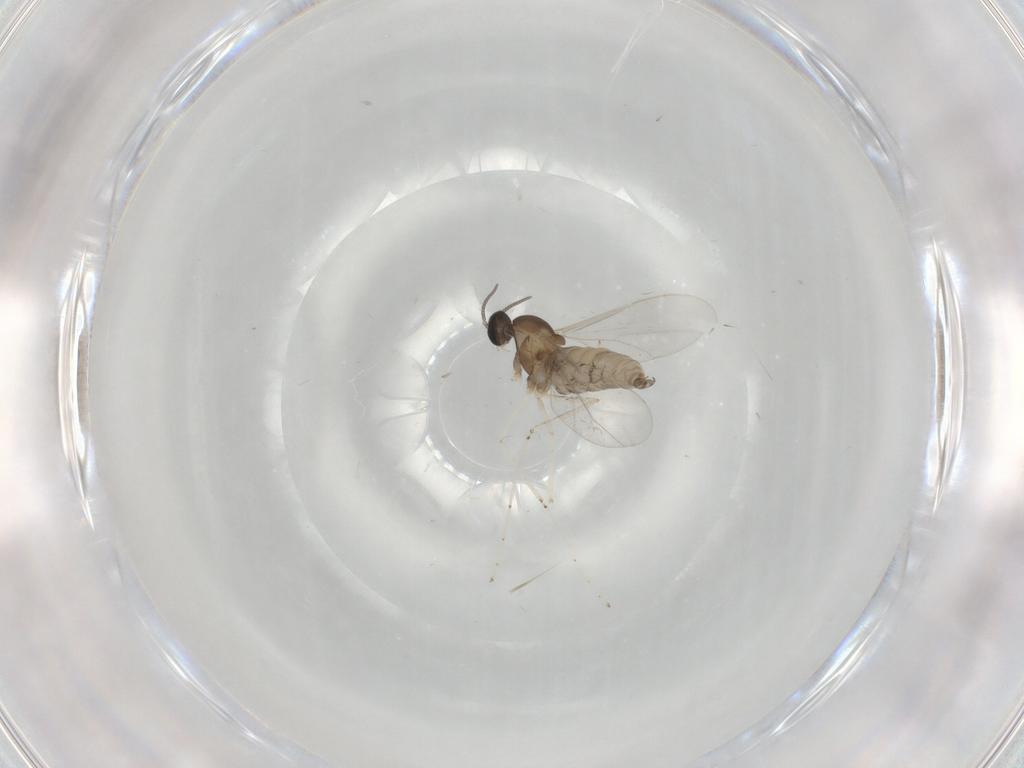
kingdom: Animalia
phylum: Arthropoda
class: Insecta
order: Diptera
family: Cecidomyiidae
